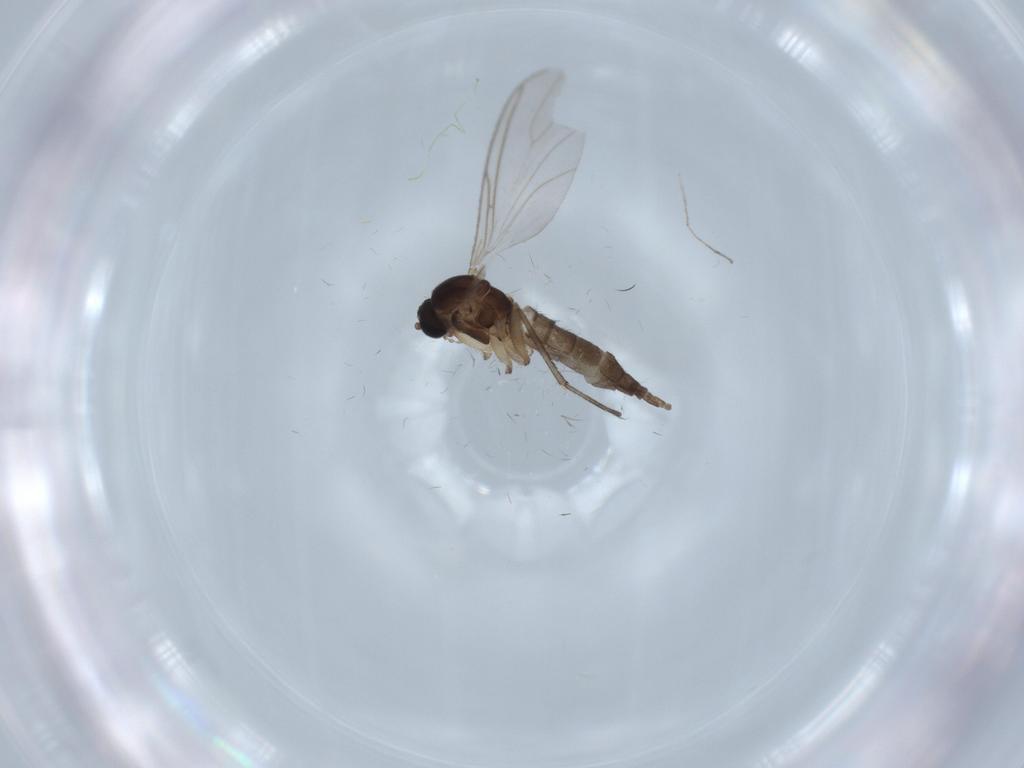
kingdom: Animalia
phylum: Arthropoda
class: Insecta
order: Diptera
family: Sciaridae
